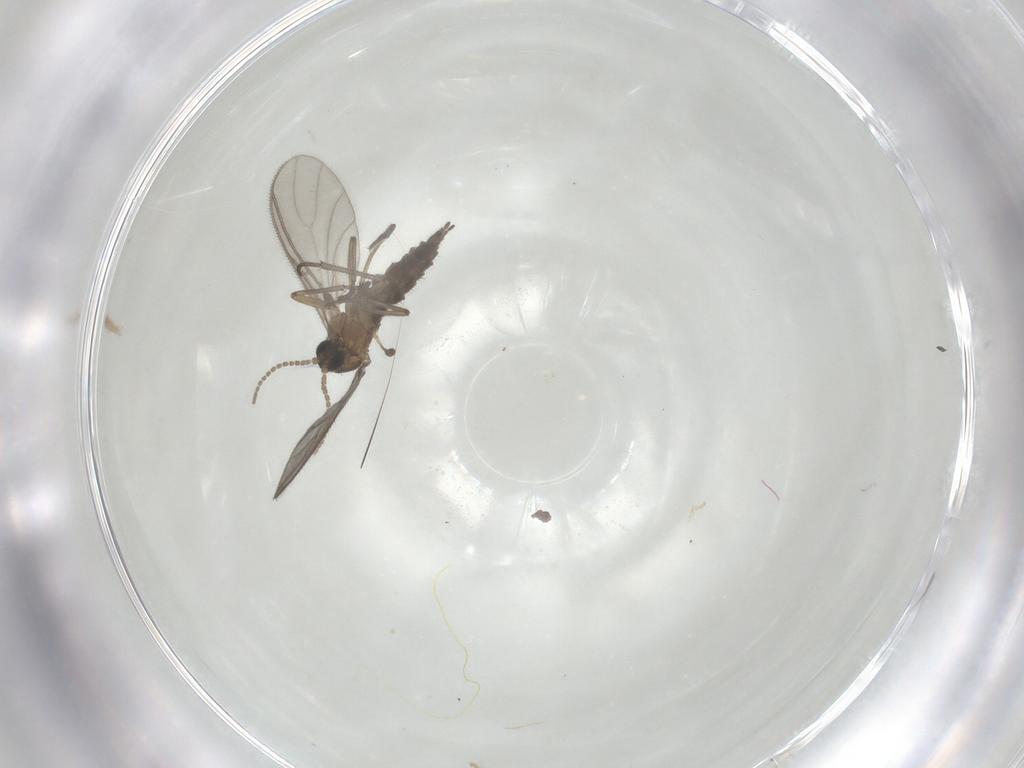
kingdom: Animalia
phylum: Arthropoda
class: Insecta
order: Diptera
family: Sciaridae
